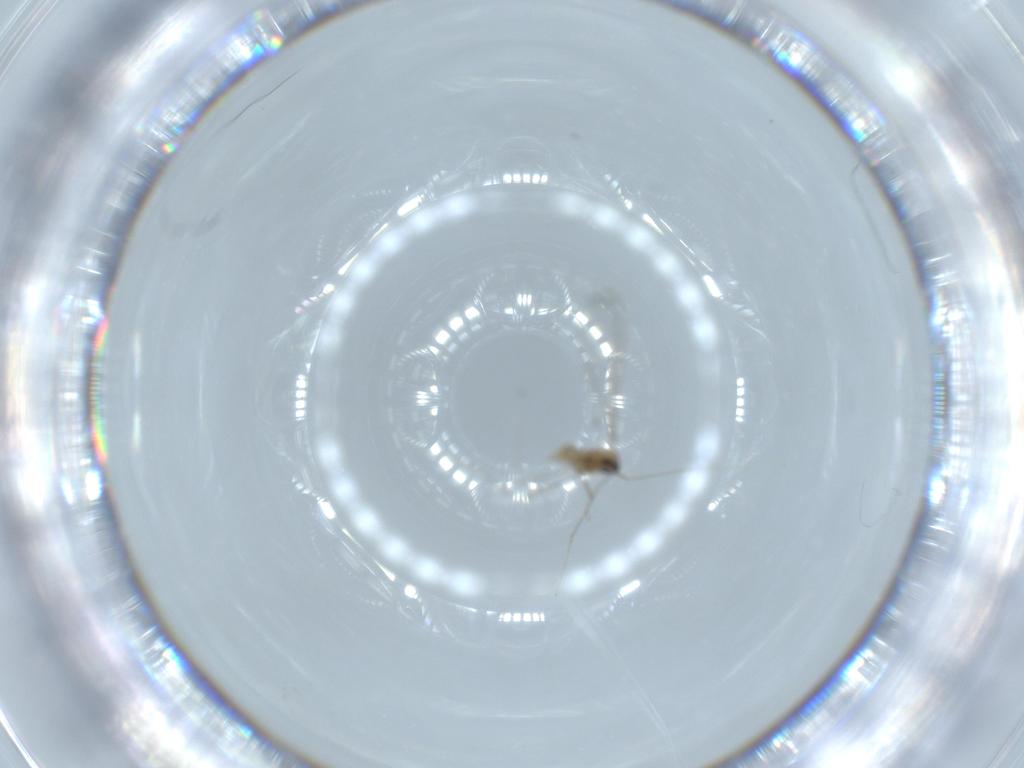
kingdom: Animalia
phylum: Arthropoda
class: Insecta
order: Diptera
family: Cecidomyiidae
